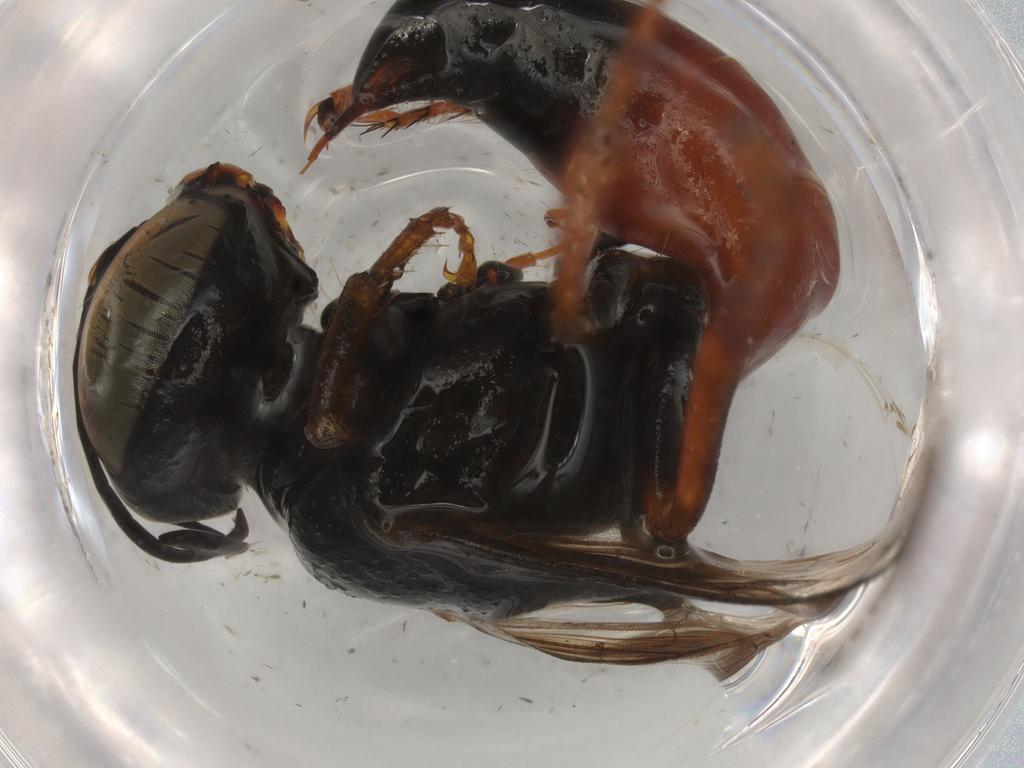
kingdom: Animalia
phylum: Arthropoda
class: Insecta
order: Hymenoptera
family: Crabronidae
